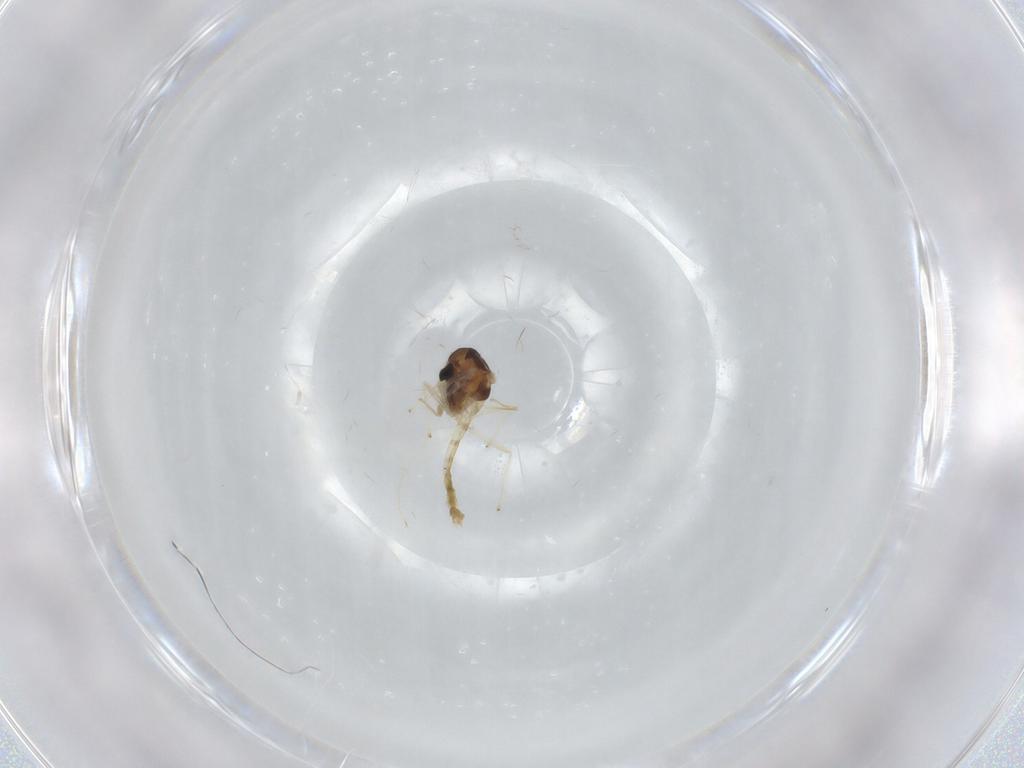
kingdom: Animalia
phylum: Arthropoda
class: Insecta
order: Diptera
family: Chironomidae
